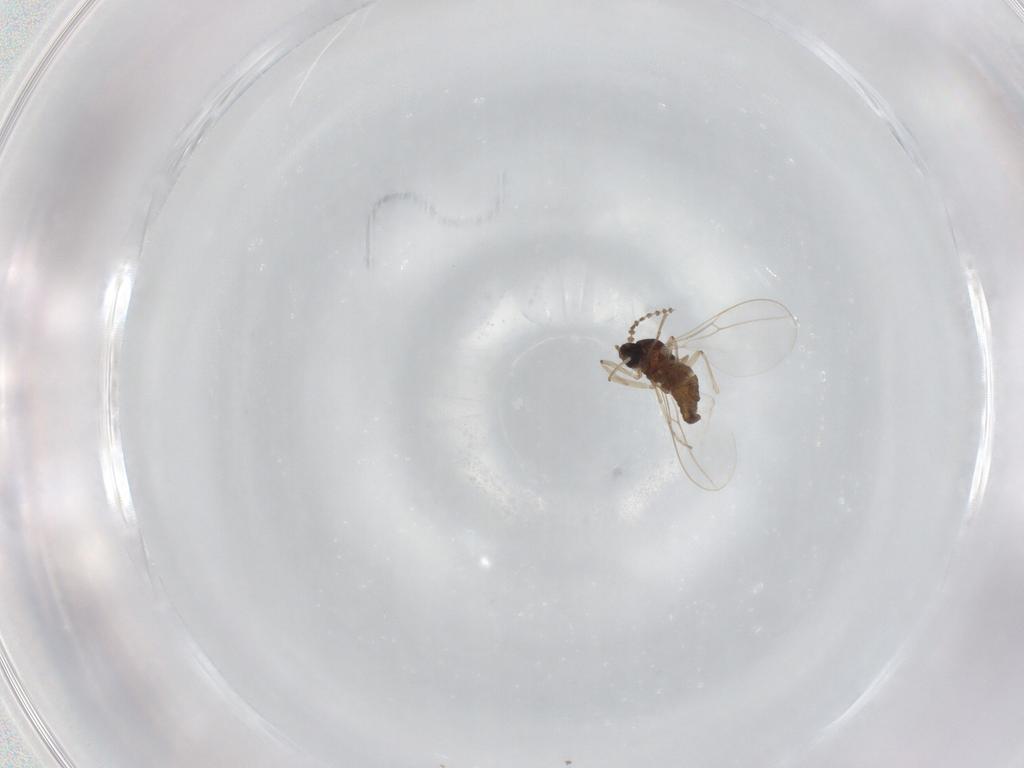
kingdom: Animalia
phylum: Arthropoda
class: Insecta
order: Diptera
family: Cecidomyiidae
